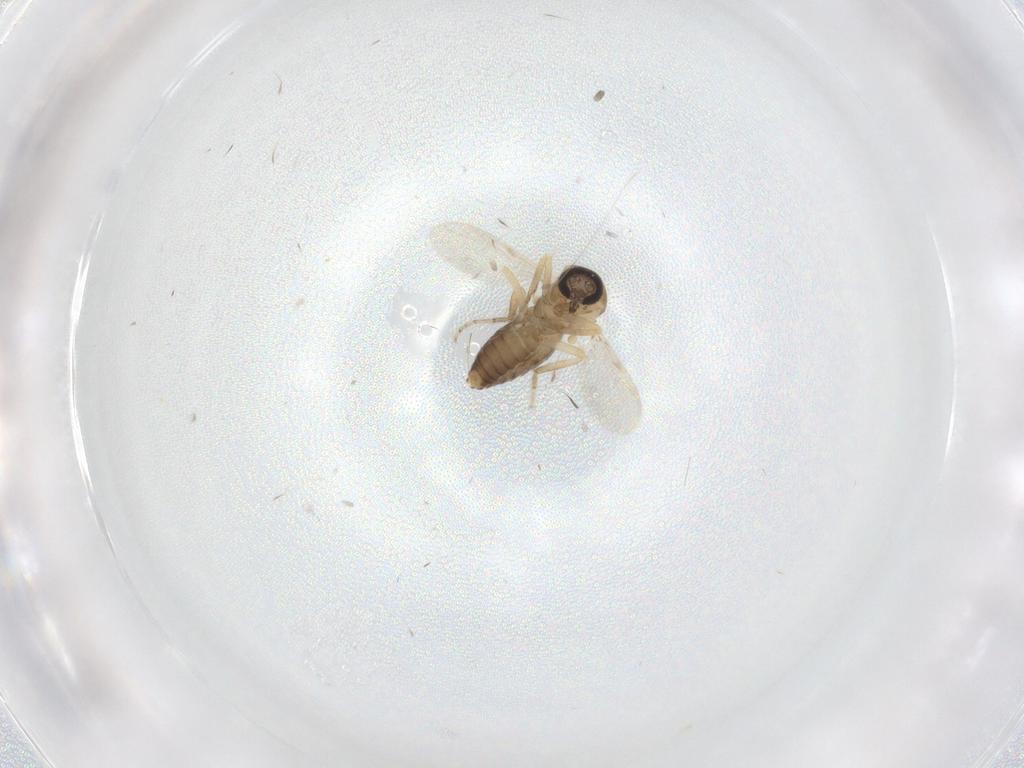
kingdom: Animalia
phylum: Arthropoda
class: Insecta
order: Diptera
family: Ceratopogonidae
